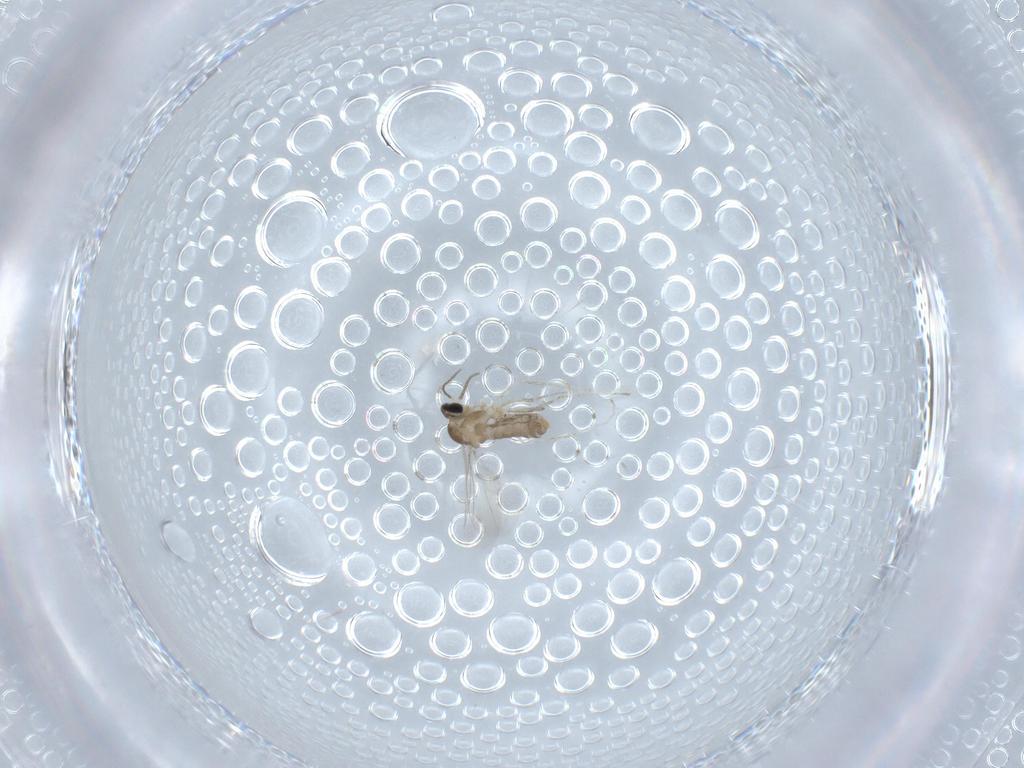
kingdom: Animalia
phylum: Arthropoda
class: Insecta
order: Diptera
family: Cecidomyiidae
